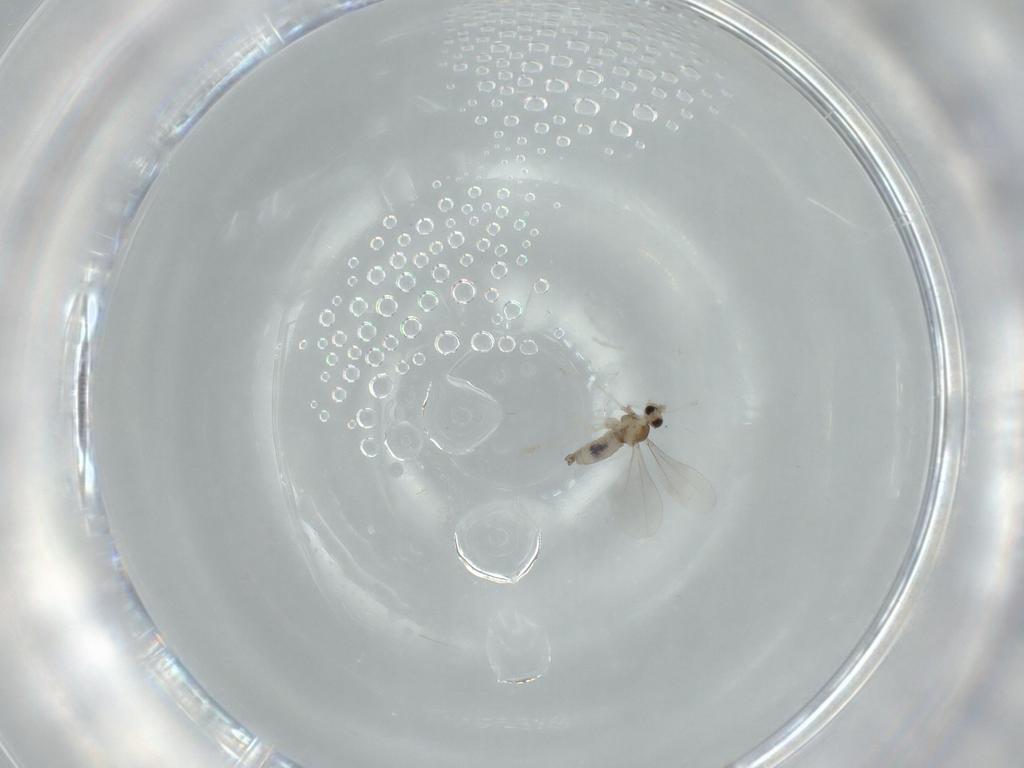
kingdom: Animalia
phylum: Arthropoda
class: Insecta
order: Diptera
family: Cecidomyiidae
